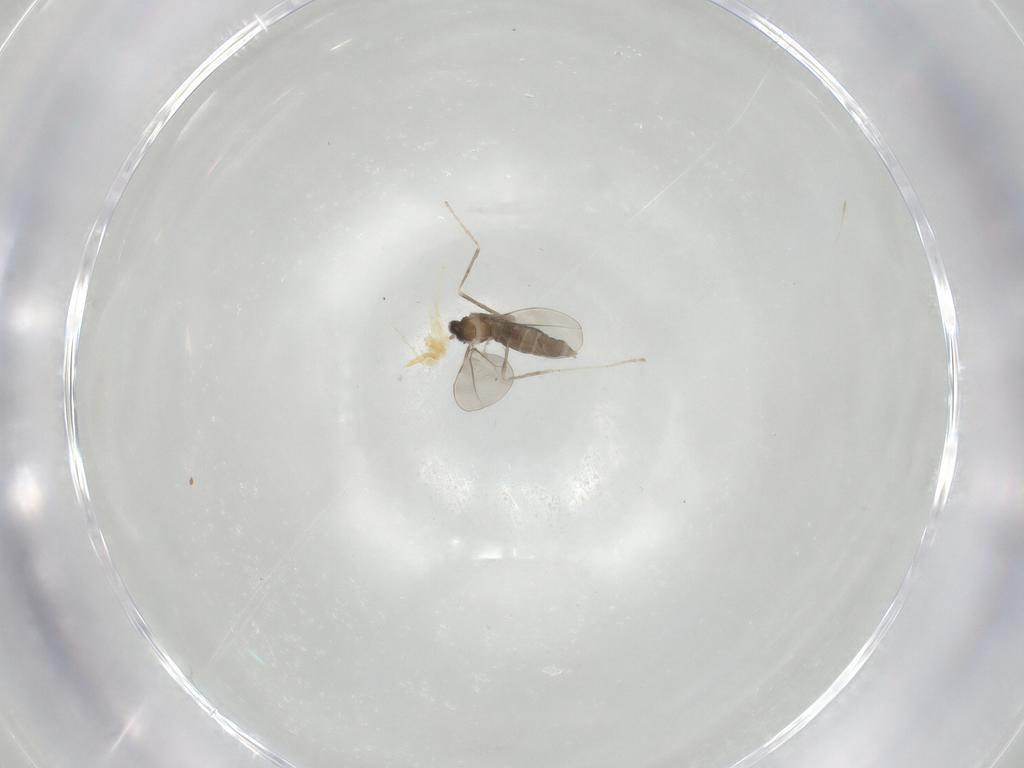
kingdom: Animalia
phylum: Arthropoda
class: Insecta
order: Diptera
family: Cecidomyiidae
